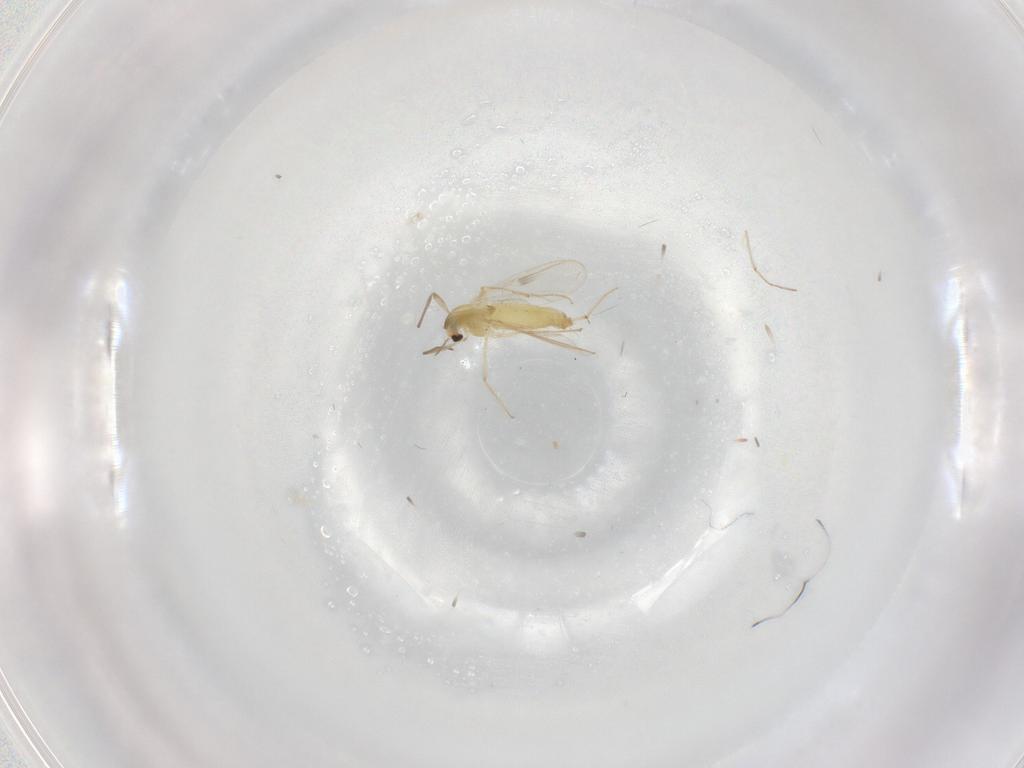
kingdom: Animalia
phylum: Arthropoda
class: Insecta
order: Diptera
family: Chironomidae
